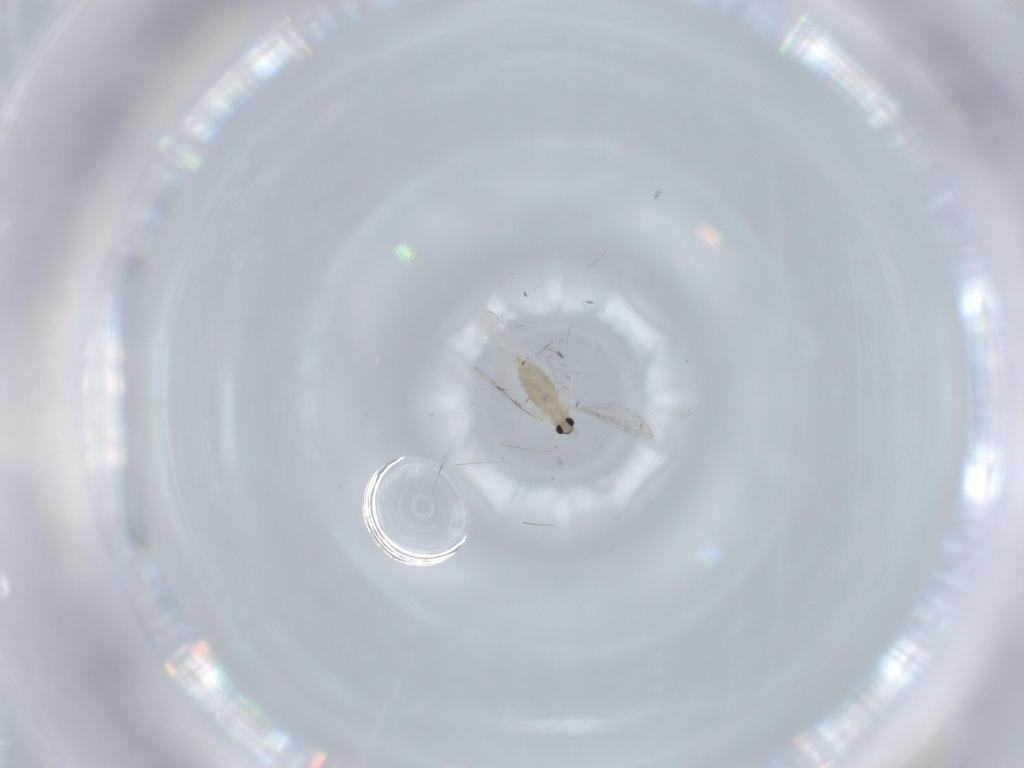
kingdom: Animalia
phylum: Arthropoda
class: Insecta
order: Diptera
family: Cecidomyiidae
